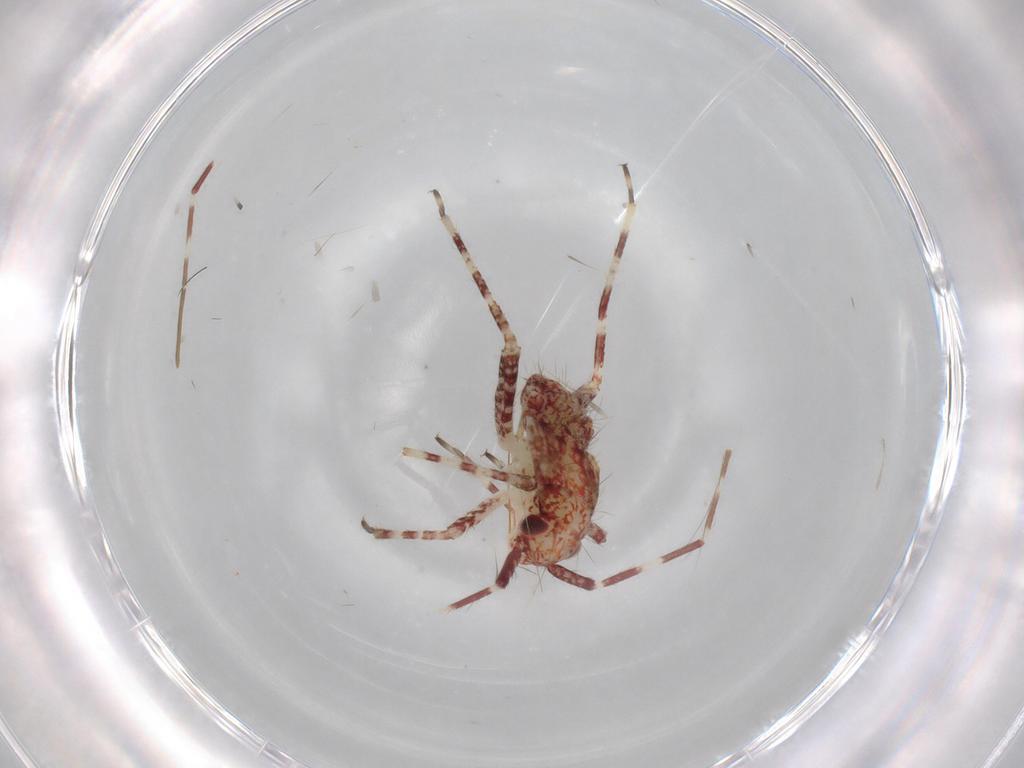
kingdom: Animalia
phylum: Arthropoda
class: Insecta
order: Hemiptera
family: Miridae
